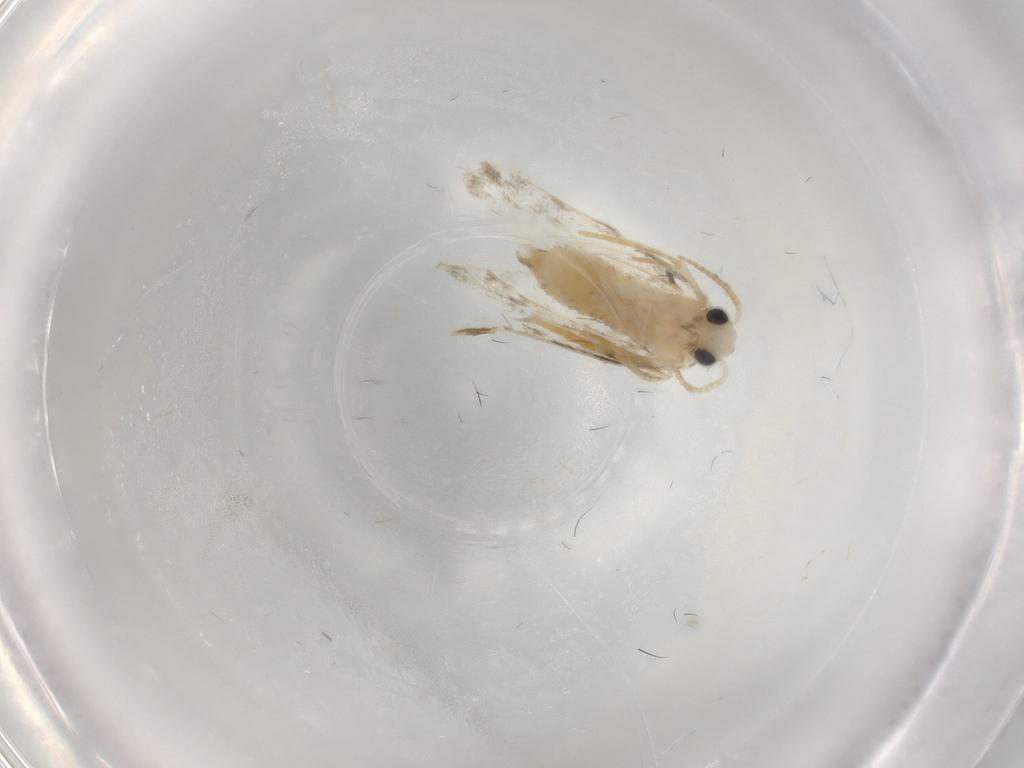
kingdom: Animalia
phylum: Arthropoda
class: Insecta
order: Lepidoptera
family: Psychidae
